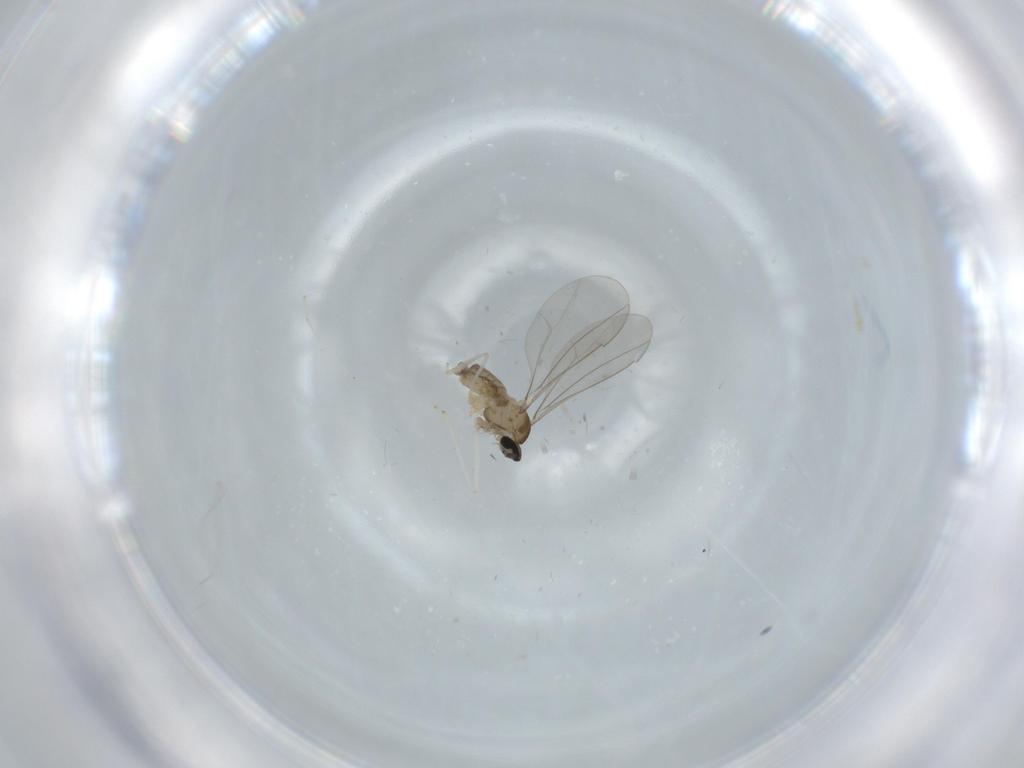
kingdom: Animalia
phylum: Arthropoda
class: Insecta
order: Diptera
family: Cecidomyiidae
